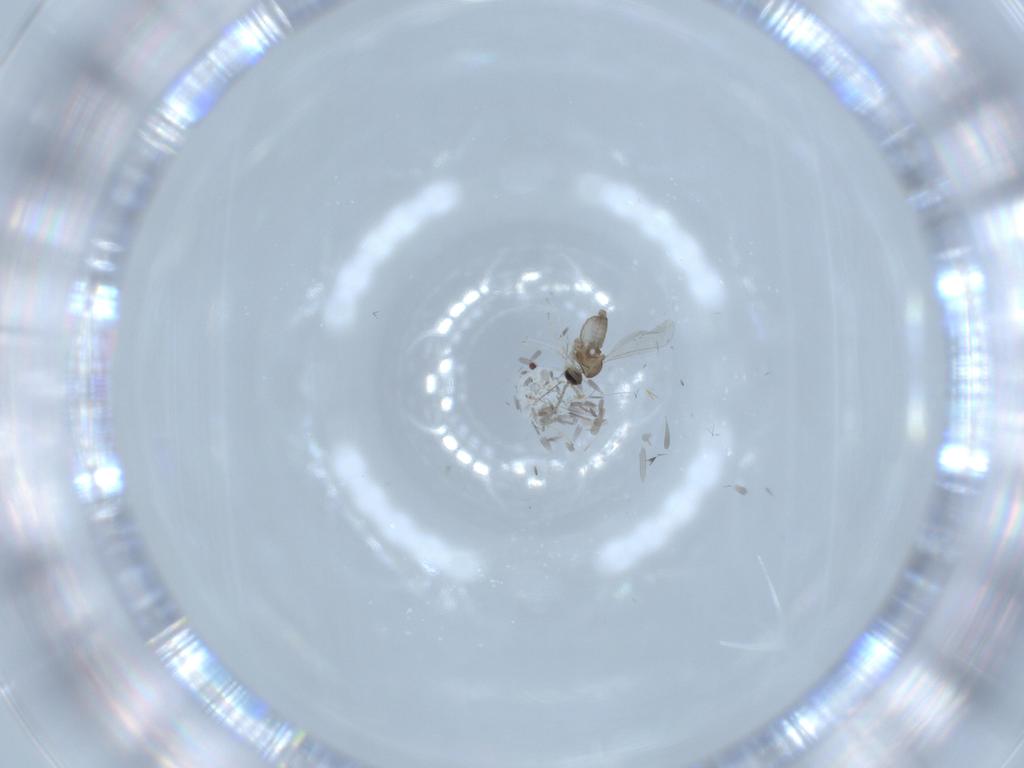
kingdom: Animalia
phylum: Arthropoda
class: Insecta
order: Diptera
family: Cecidomyiidae
